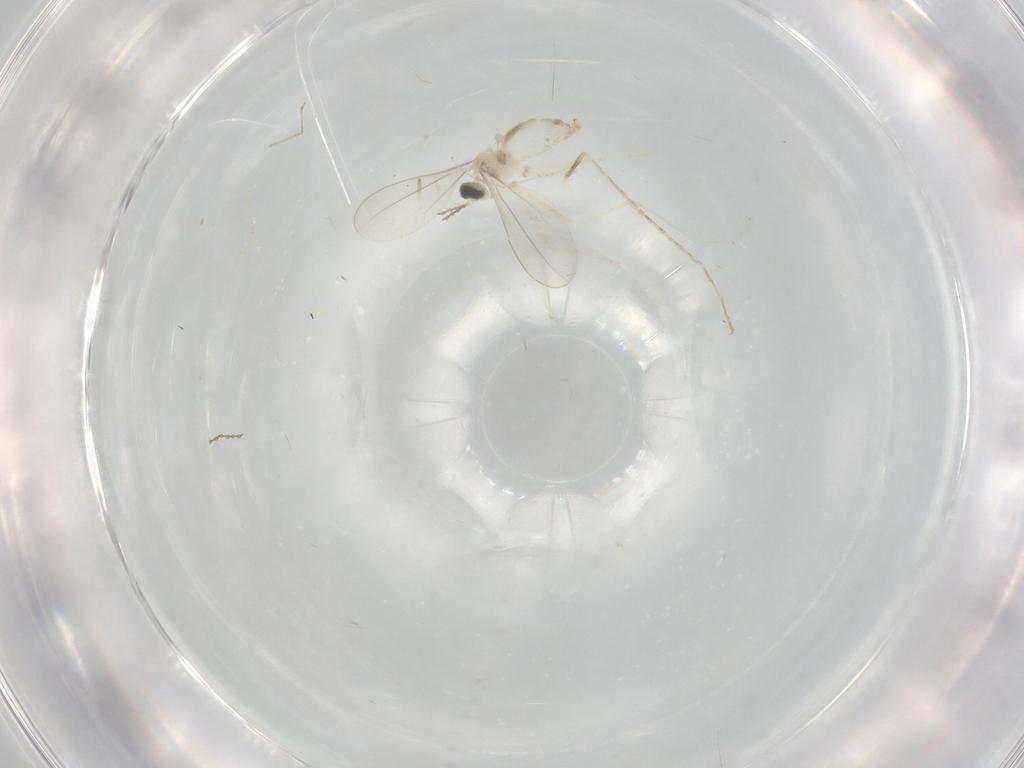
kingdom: Animalia
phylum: Arthropoda
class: Insecta
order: Diptera
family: Cecidomyiidae
